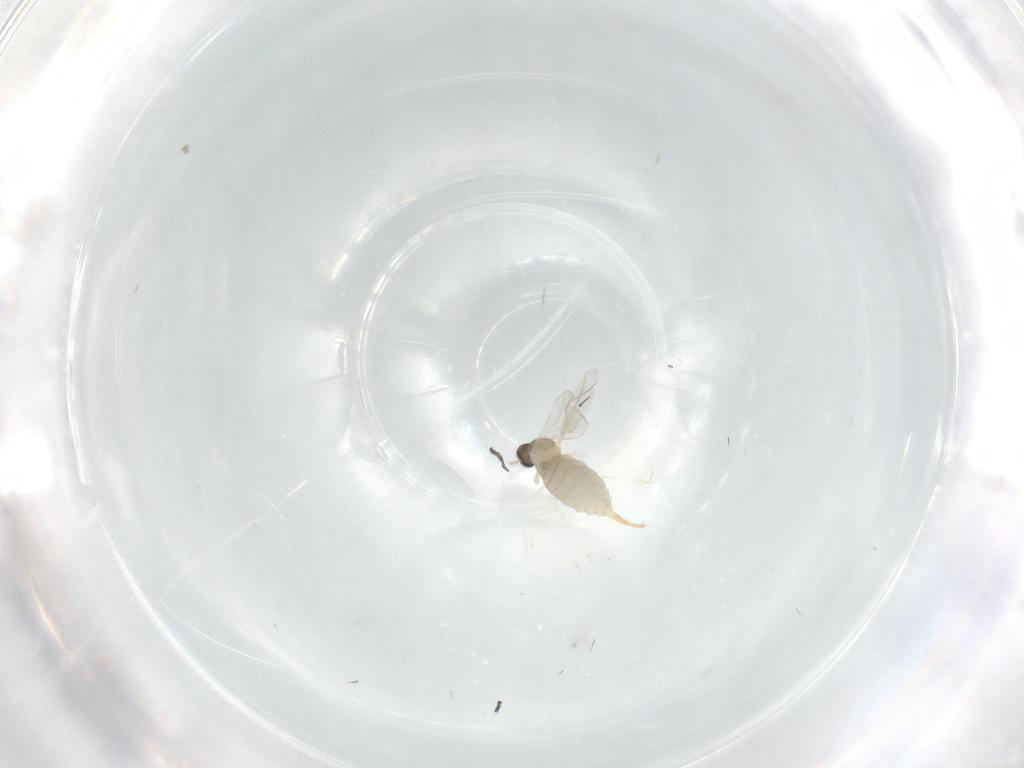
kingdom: Animalia
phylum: Arthropoda
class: Insecta
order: Diptera
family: Cecidomyiidae
